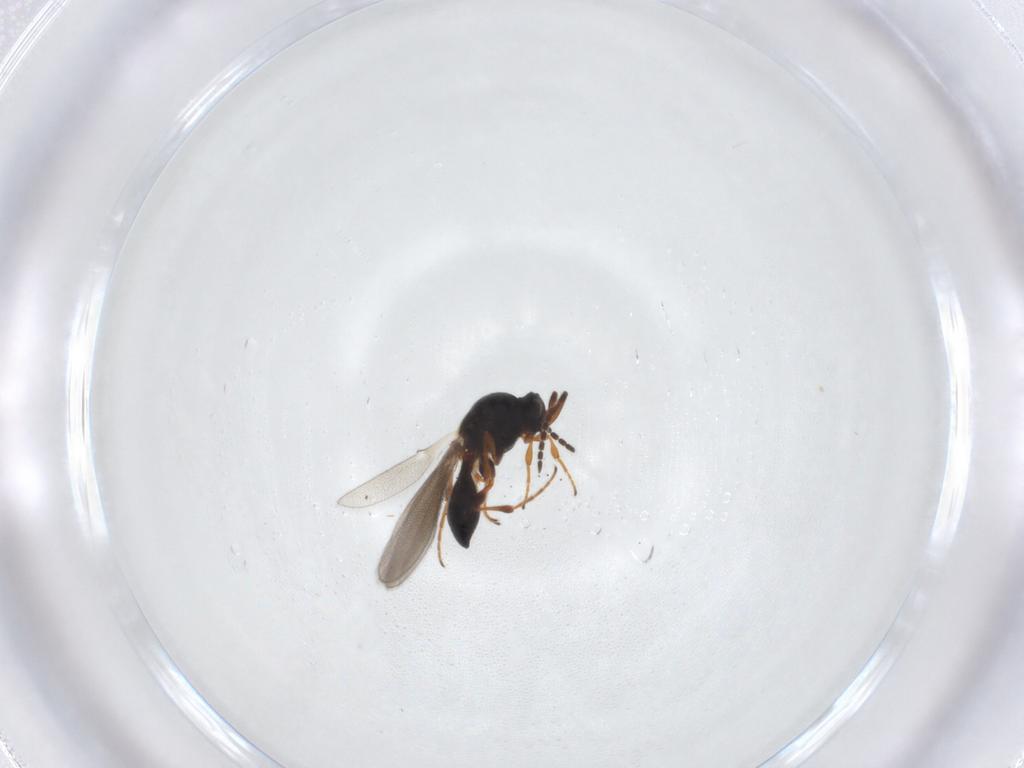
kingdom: Animalia
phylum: Arthropoda
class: Insecta
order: Hymenoptera
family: Platygastridae
